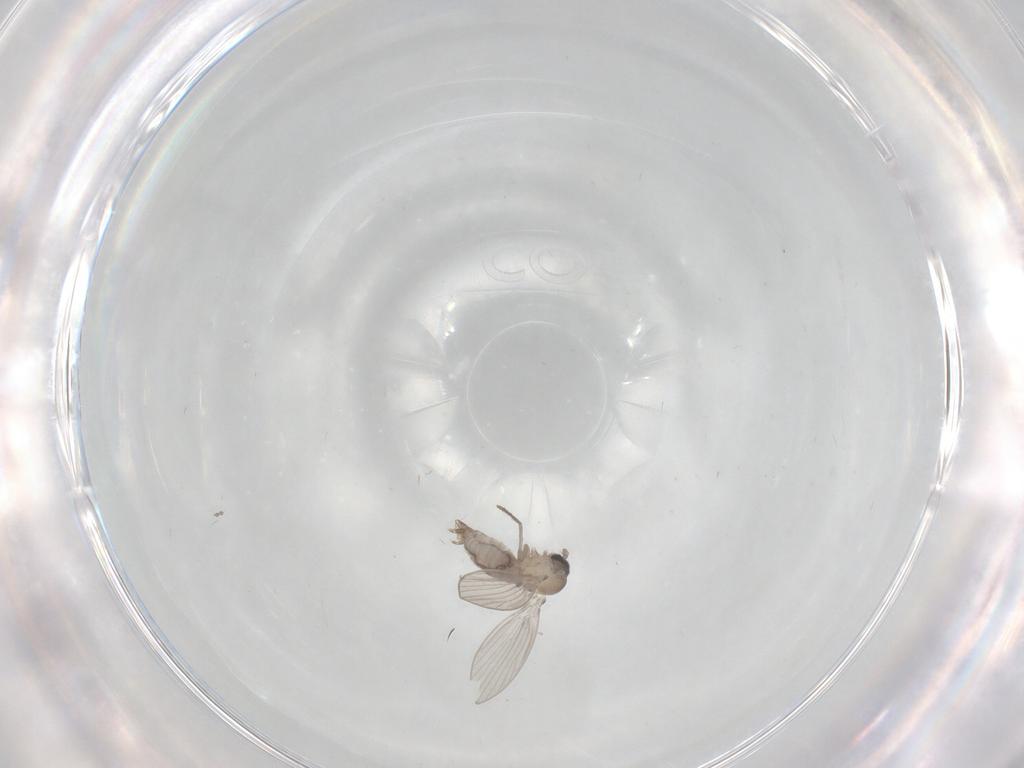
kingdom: Animalia
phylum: Arthropoda
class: Insecta
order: Diptera
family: Psychodidae
